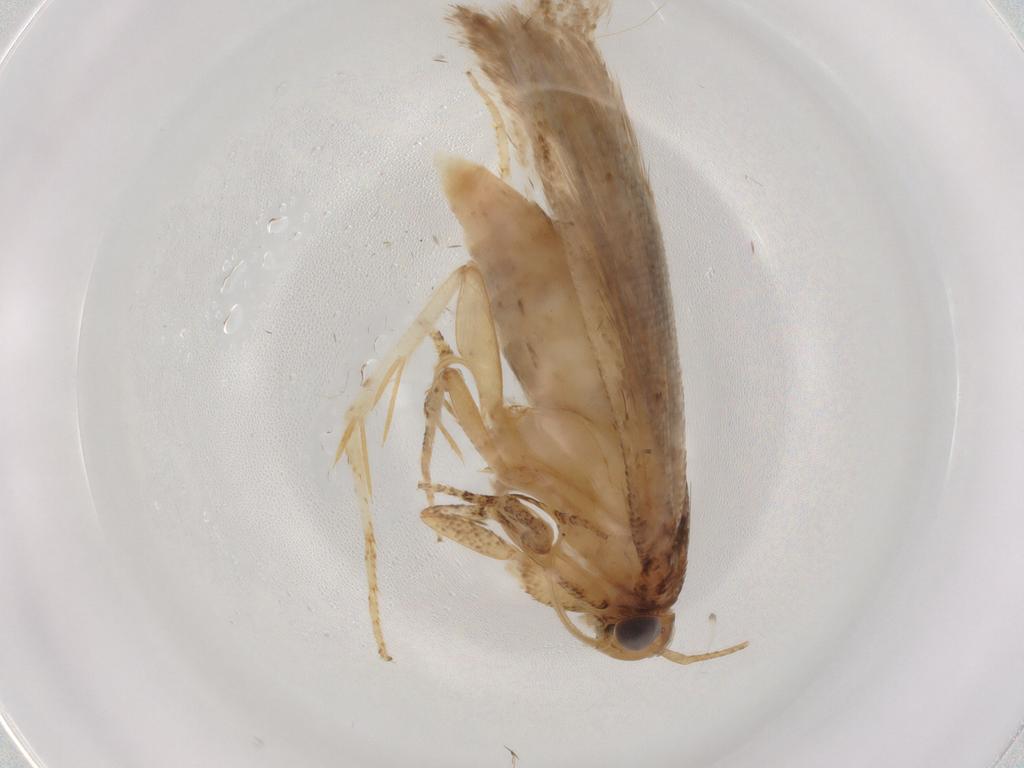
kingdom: Animalia
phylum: Arthropoda
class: Insecta
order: Lepidoptera
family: Gelechiidae
